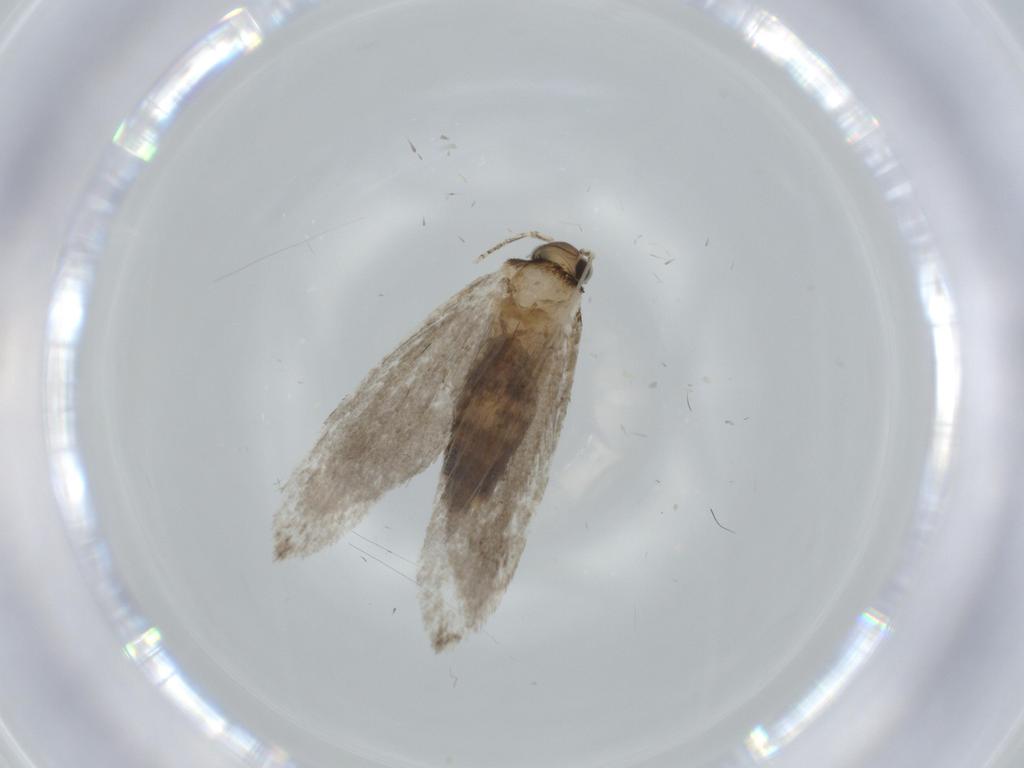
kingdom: Animalia
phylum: Arthropoda
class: Insecta
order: Lepidoptera
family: Tineidae
